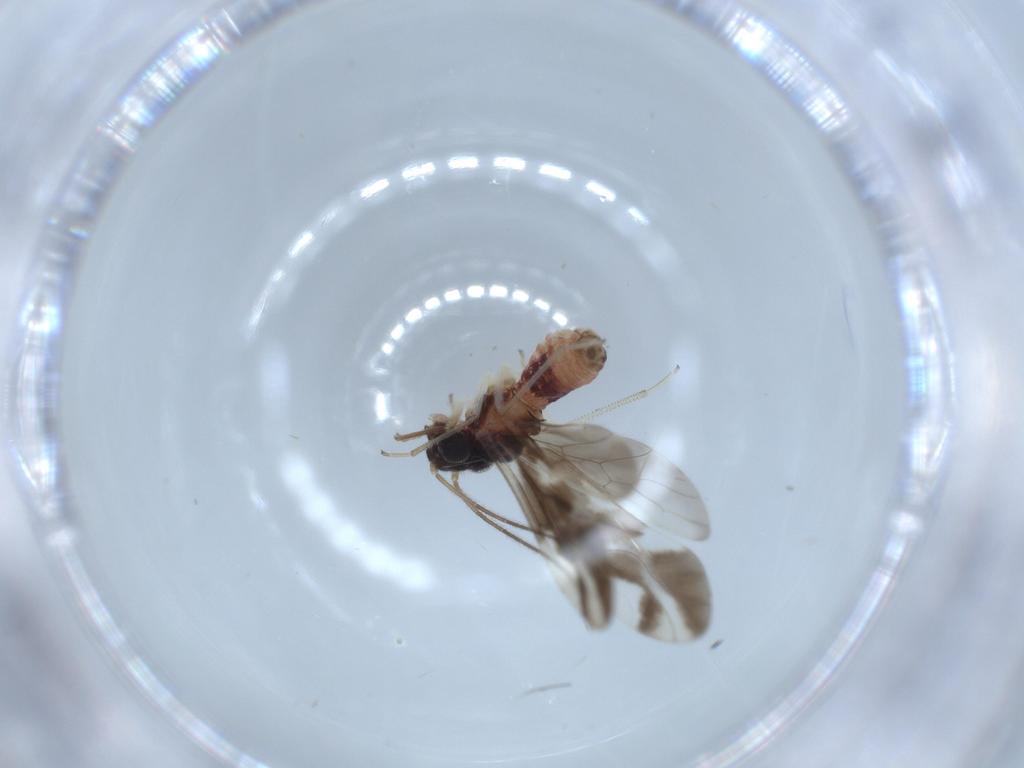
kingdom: Animalia
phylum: Arthropoda
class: Insecta
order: Psocodea
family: Caeciliusidae
